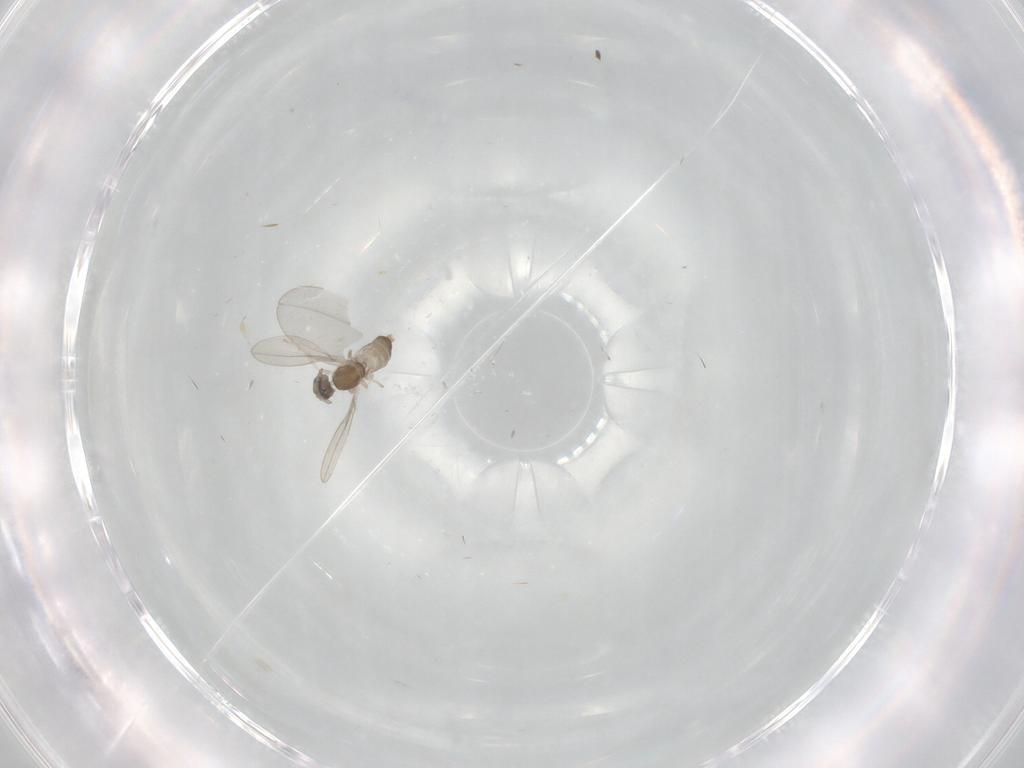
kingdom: Animalia
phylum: Arthropoda
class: Insecta
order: Diptera
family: Cecidomyiidae
